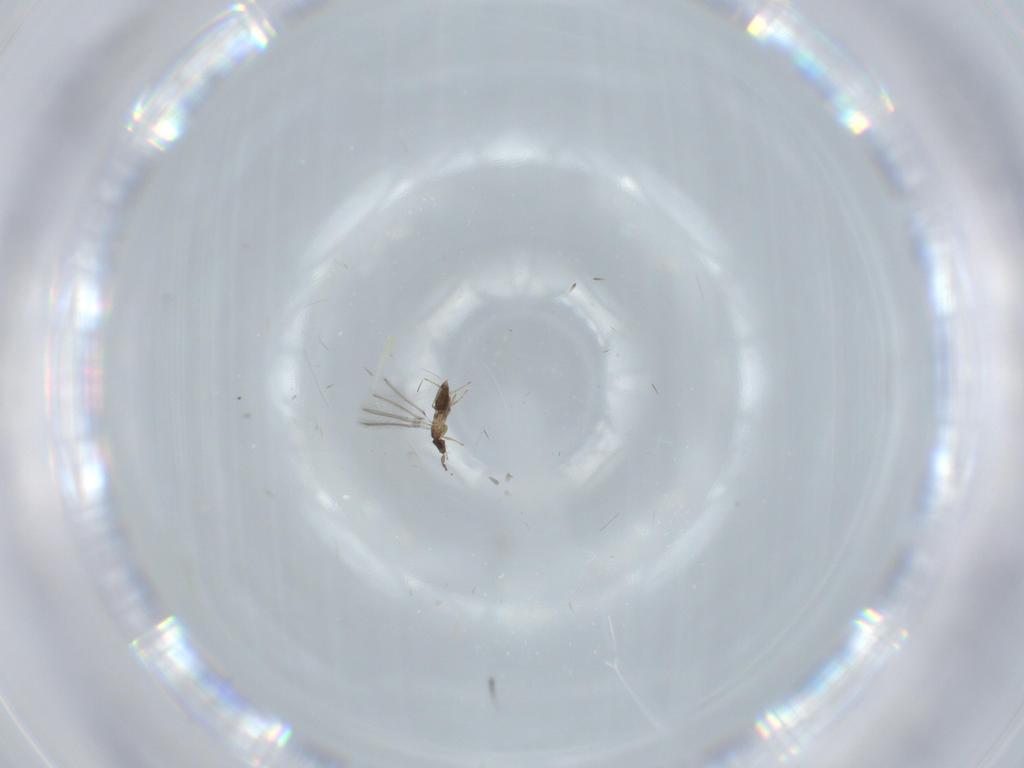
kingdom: Animalia
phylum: Arthropoda
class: Insecta
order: Hymenoptera
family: Mymaridae
